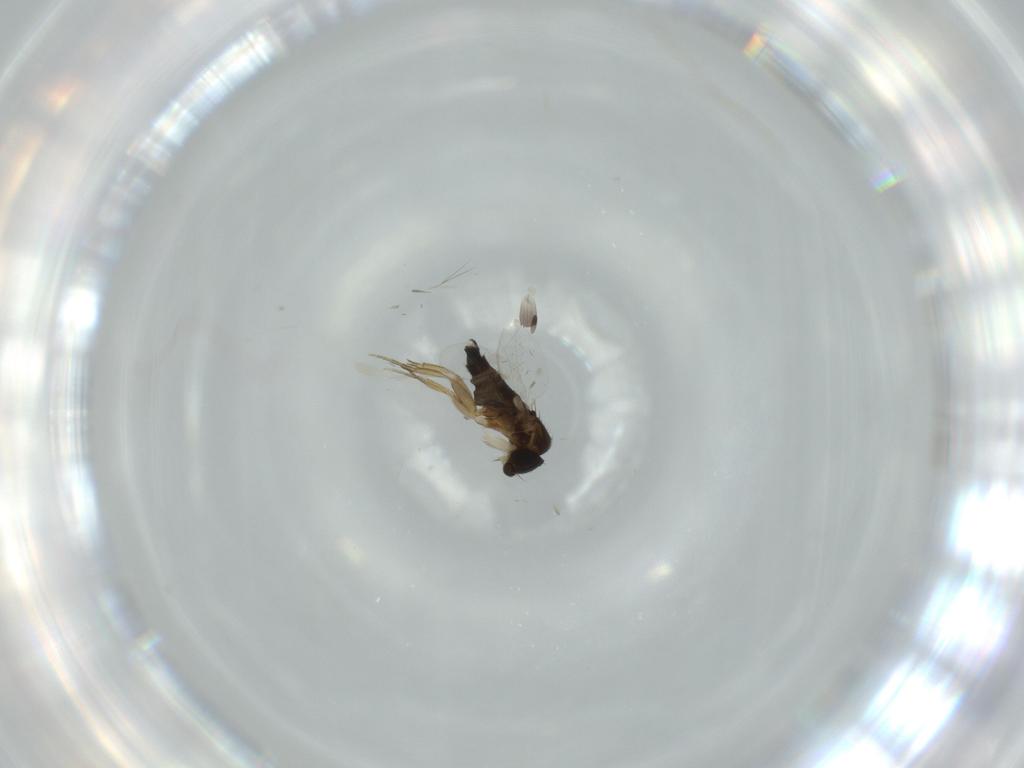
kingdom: Animalia
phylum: Arthropoda
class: Insecta
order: Diptera
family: Phoridae
